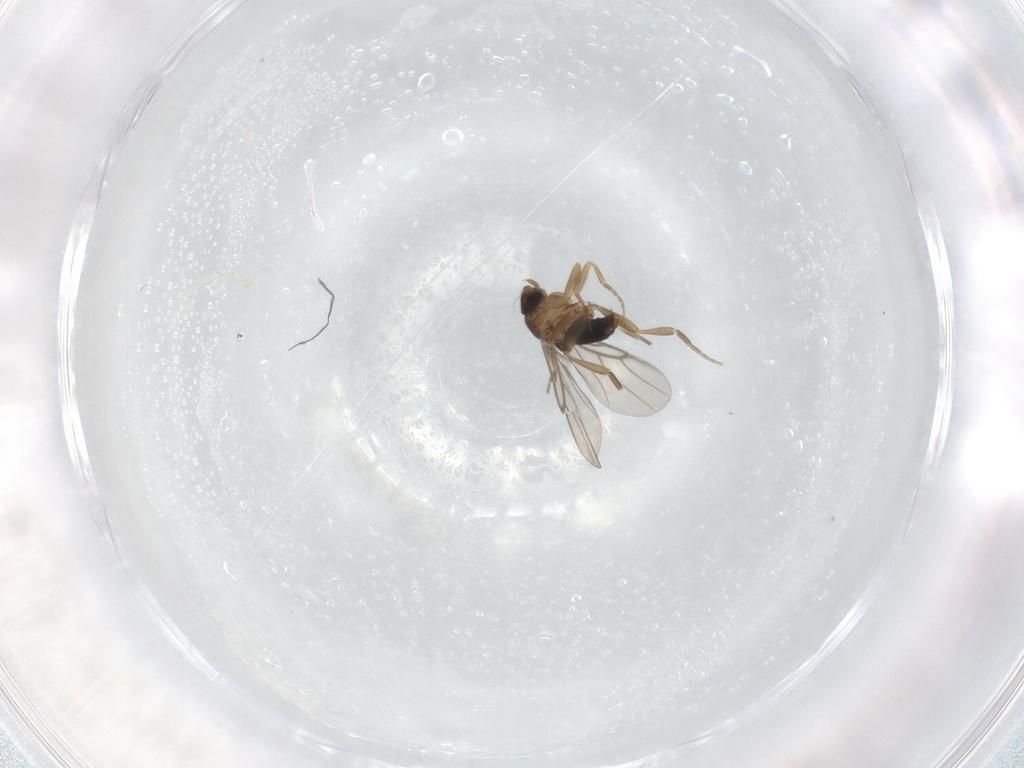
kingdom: Animalia
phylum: Arthropoda
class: Insecta
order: Diptera
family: Phoridae
